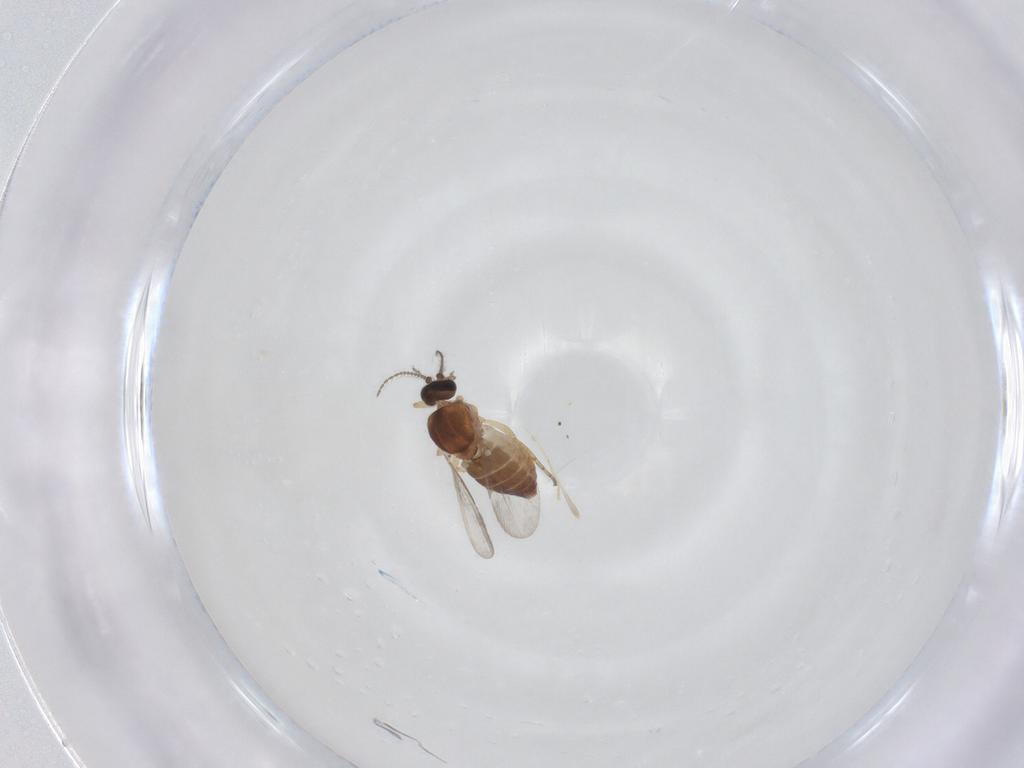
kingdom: Animalia
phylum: Arthropoda
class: Insecta
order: Diptera
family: Ceratopogonidae
